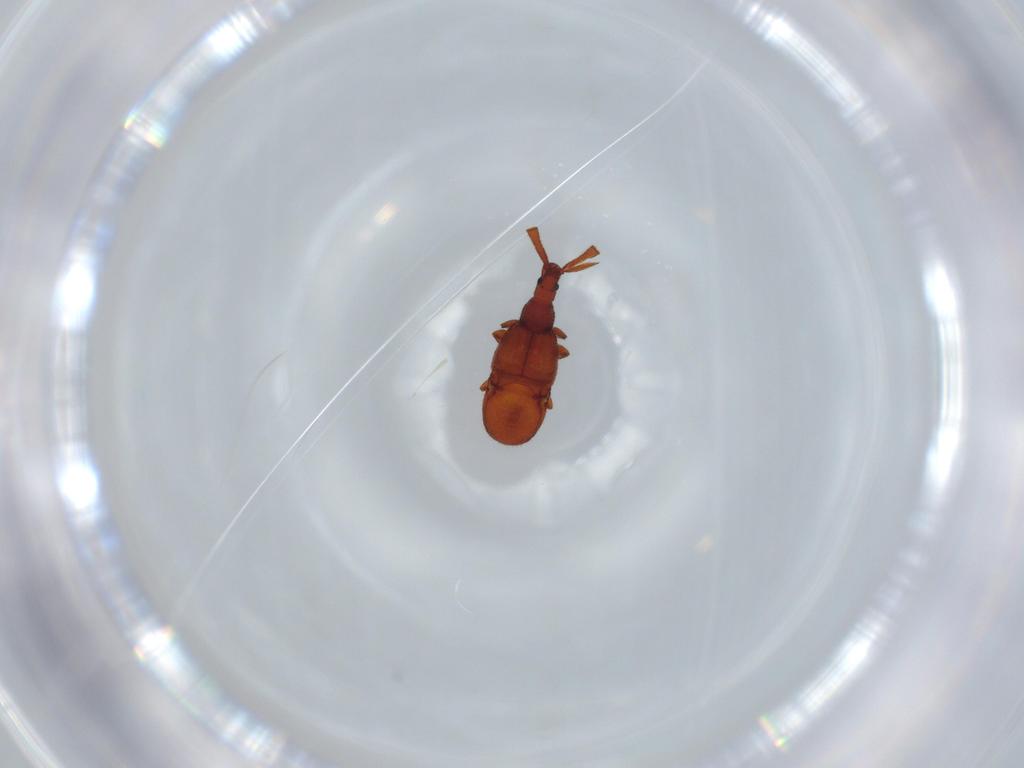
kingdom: Animalia
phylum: Arthropoda
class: Insecta
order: Coleoptera
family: Staphylinidae
